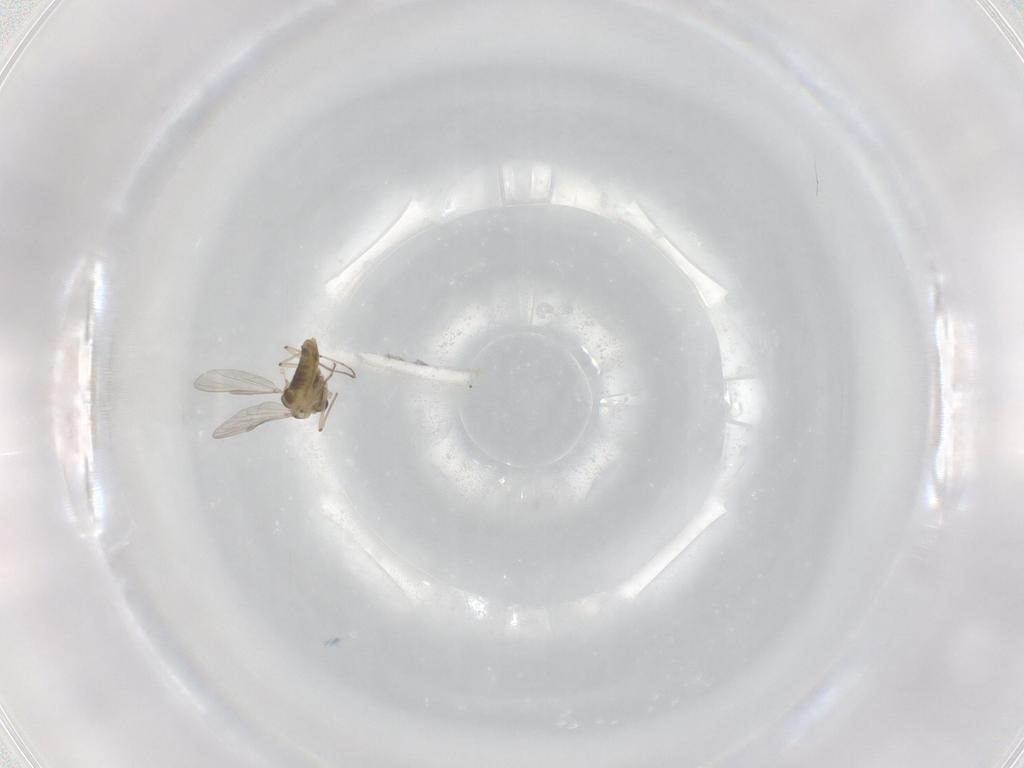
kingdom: Animalia
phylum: Arthropoda
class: Insecta
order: Diptera
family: Chironomidae
